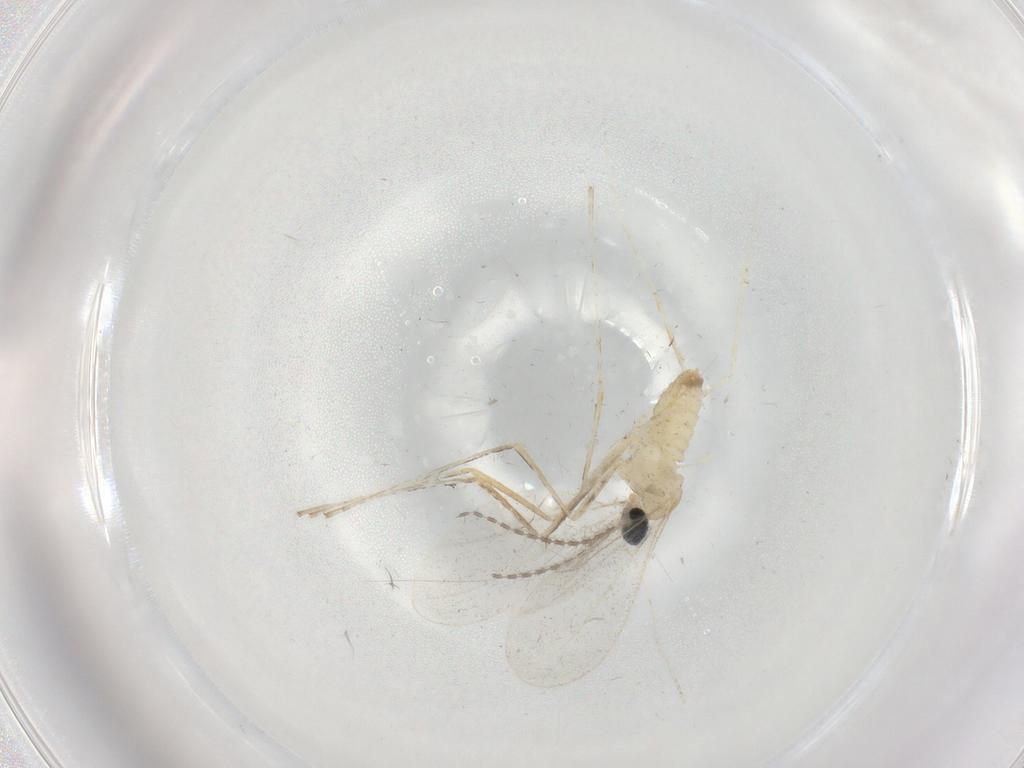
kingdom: Animalia
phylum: Arthropoda
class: Insecta
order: Diptera
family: Cecidomyiidae
